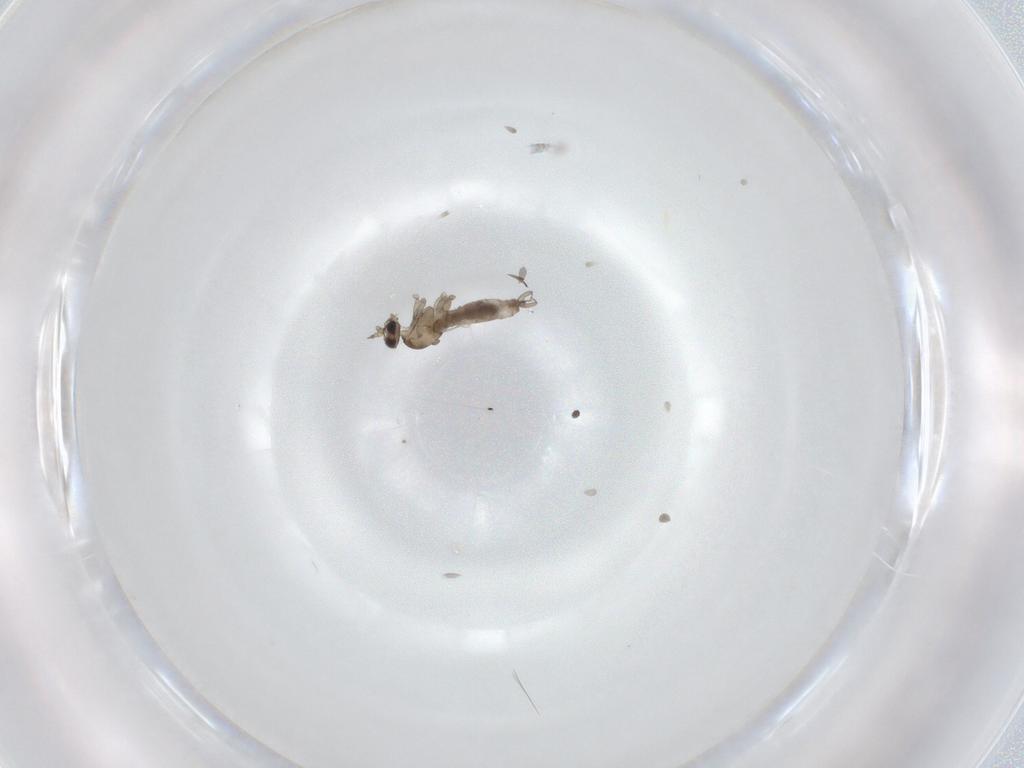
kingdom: Animalia
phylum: Arthropoda
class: Insecta
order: Diptera
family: Cecidomyiidae
